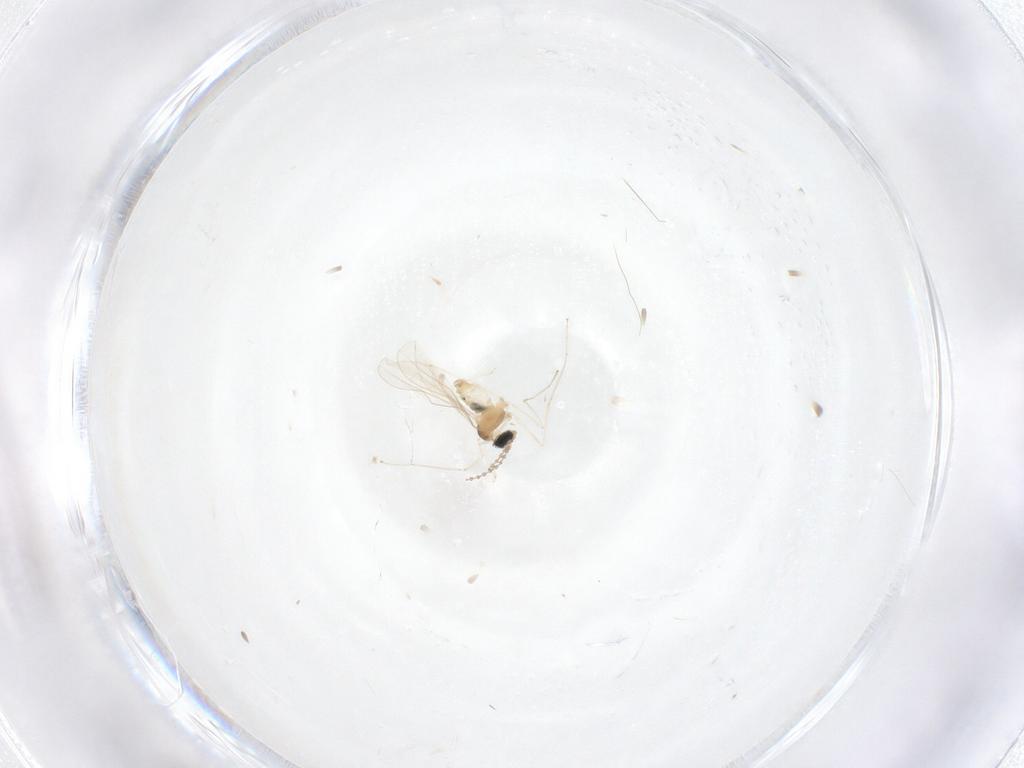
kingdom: Animalia
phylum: Arthropoda
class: Insecta
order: Diptera
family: Cecidomyiidae
